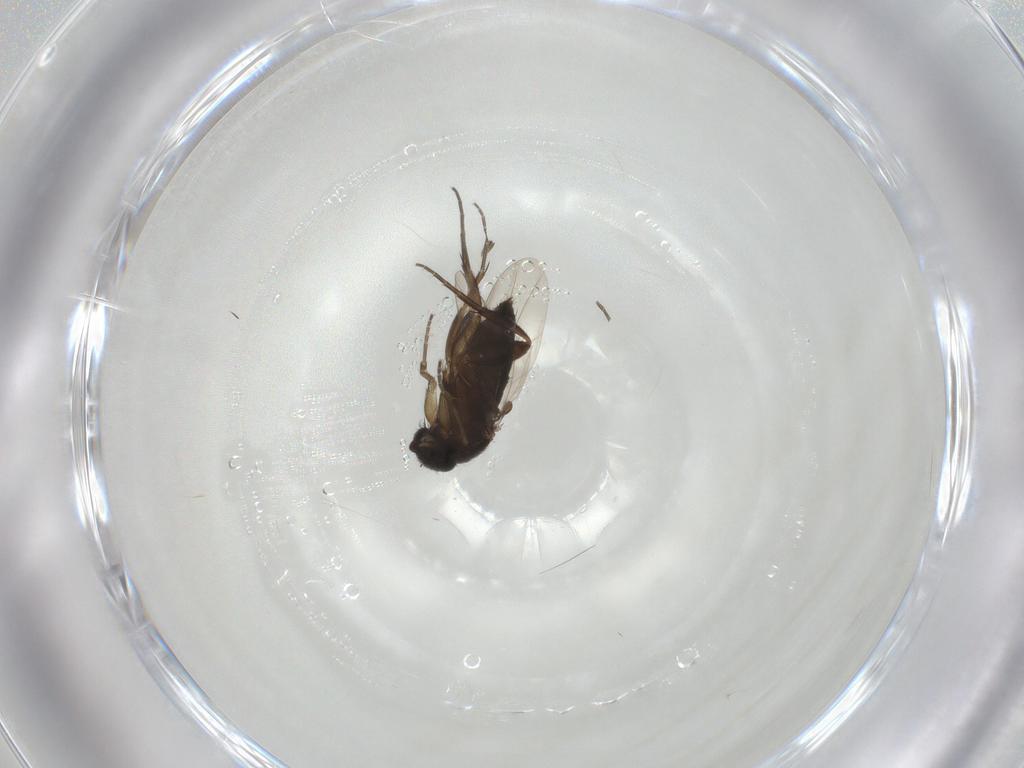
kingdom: Animalia
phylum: Arthropoda
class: Insecta
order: Diptera
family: Phoridae
